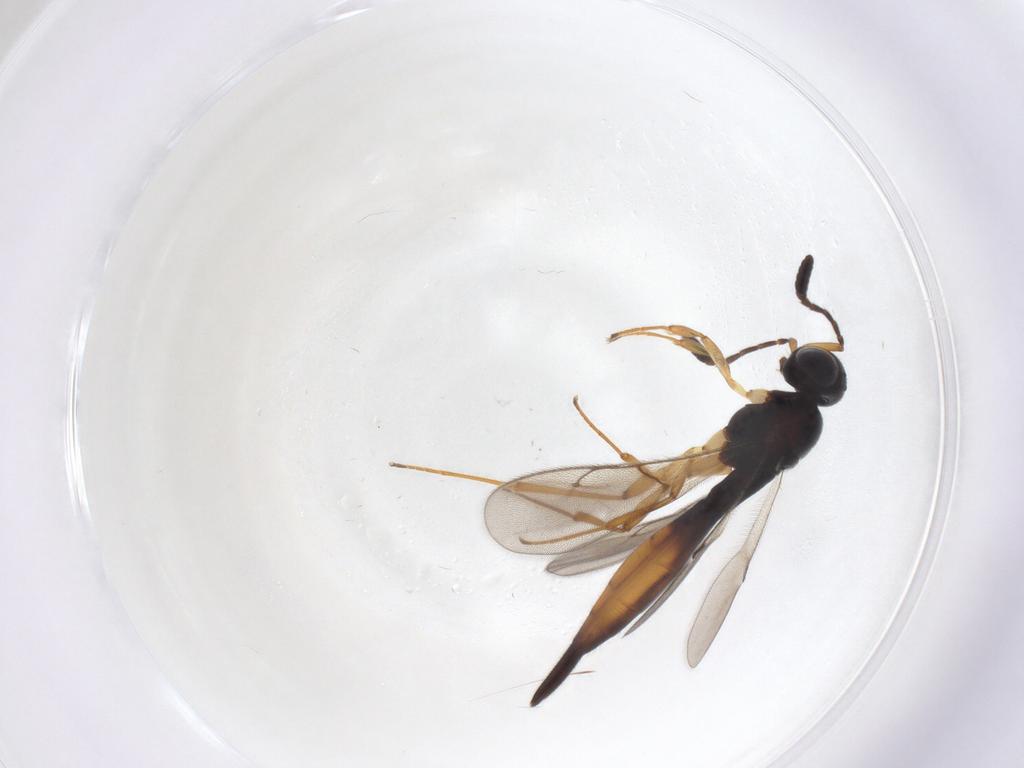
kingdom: Animalia
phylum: Arthropoda
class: Insecta
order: Hymenoptera
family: Scelionidae
